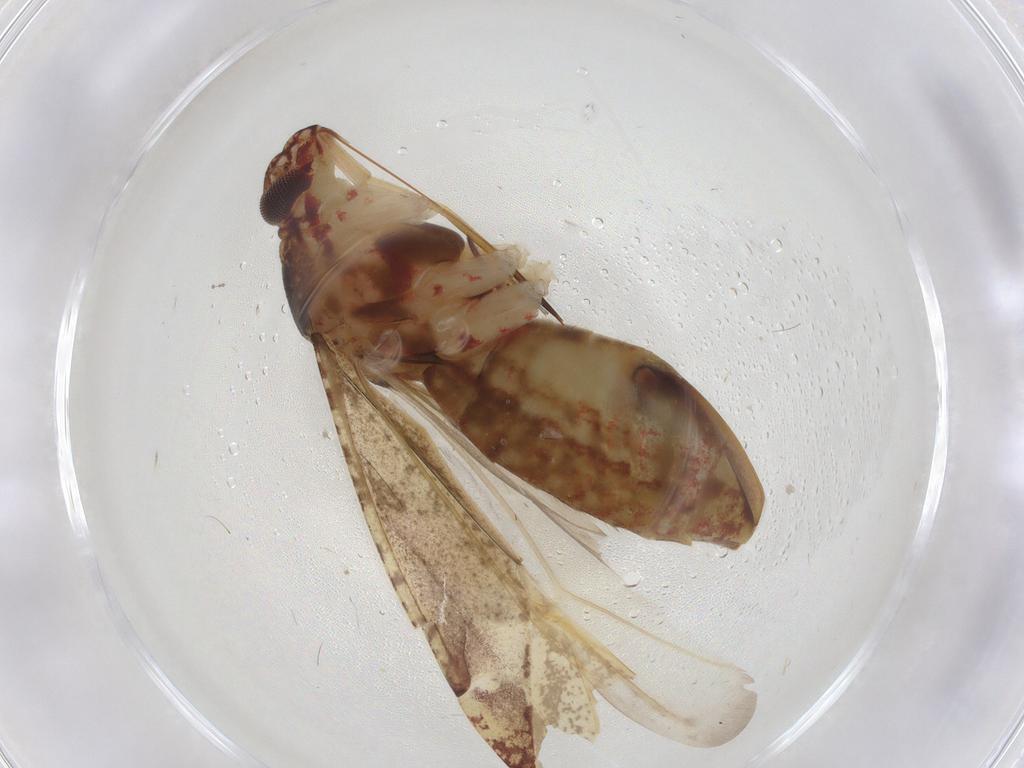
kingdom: Animalia
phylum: Arthropoda
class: Insecta
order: Hemiptera
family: Miridae
